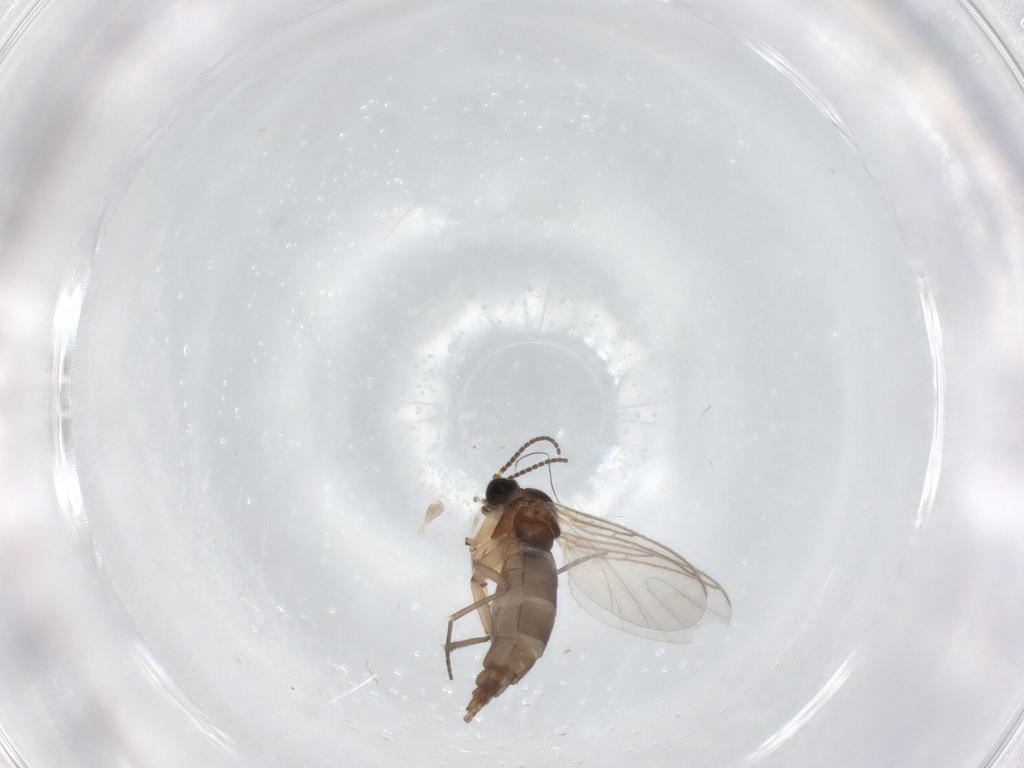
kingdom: Animalia
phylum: Arthropoda
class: Insecta
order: Diptera
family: Sciaridae
